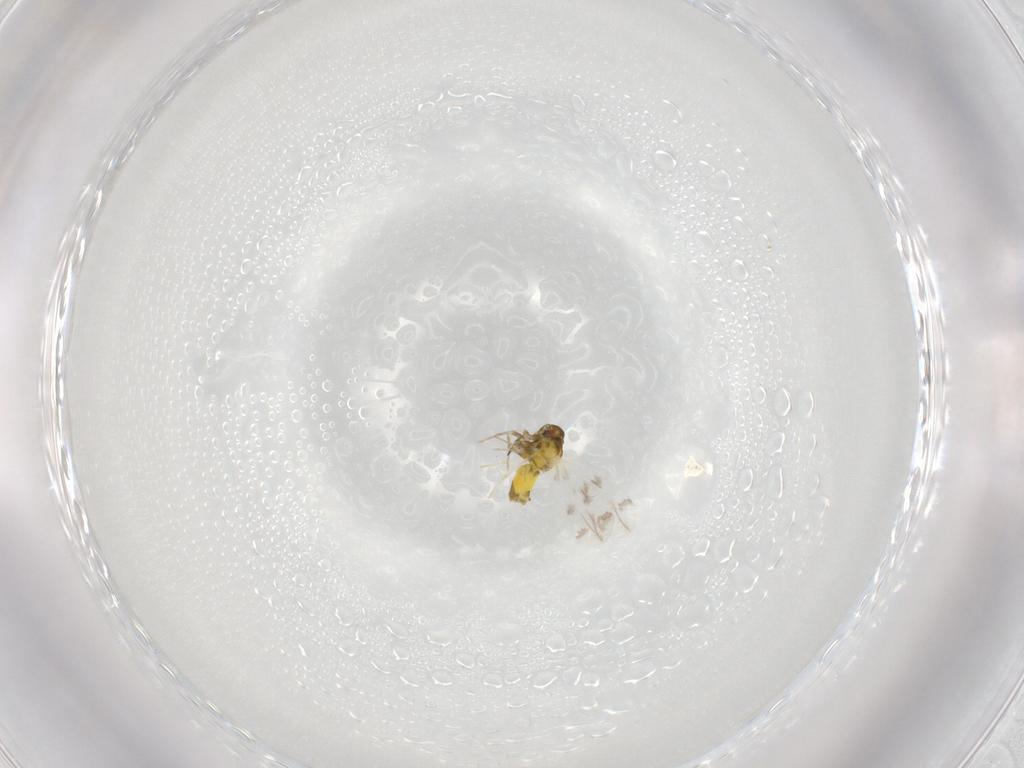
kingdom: Animalia
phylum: Arthropoda
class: Insecta
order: Hemiptera
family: Aleyrodidae
